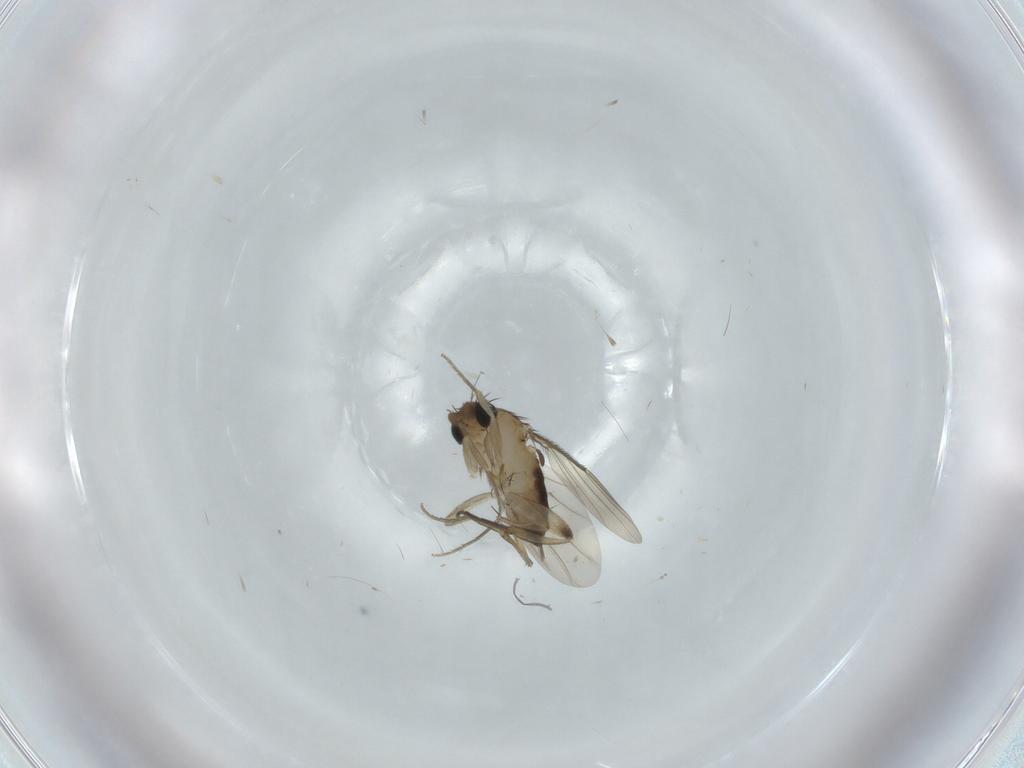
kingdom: Animalia
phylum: Arthropoda
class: Insecta
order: Diptera
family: Phoridae
